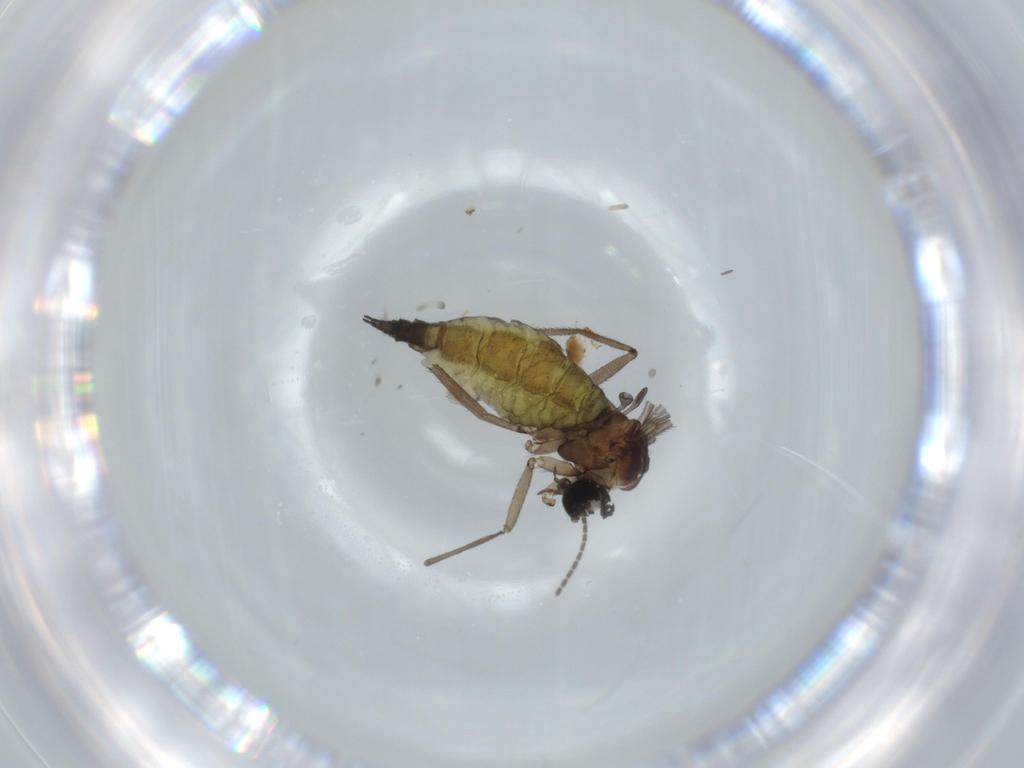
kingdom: Animalia
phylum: Arthropoda
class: Insecta
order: Diptera
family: Sciaridae
